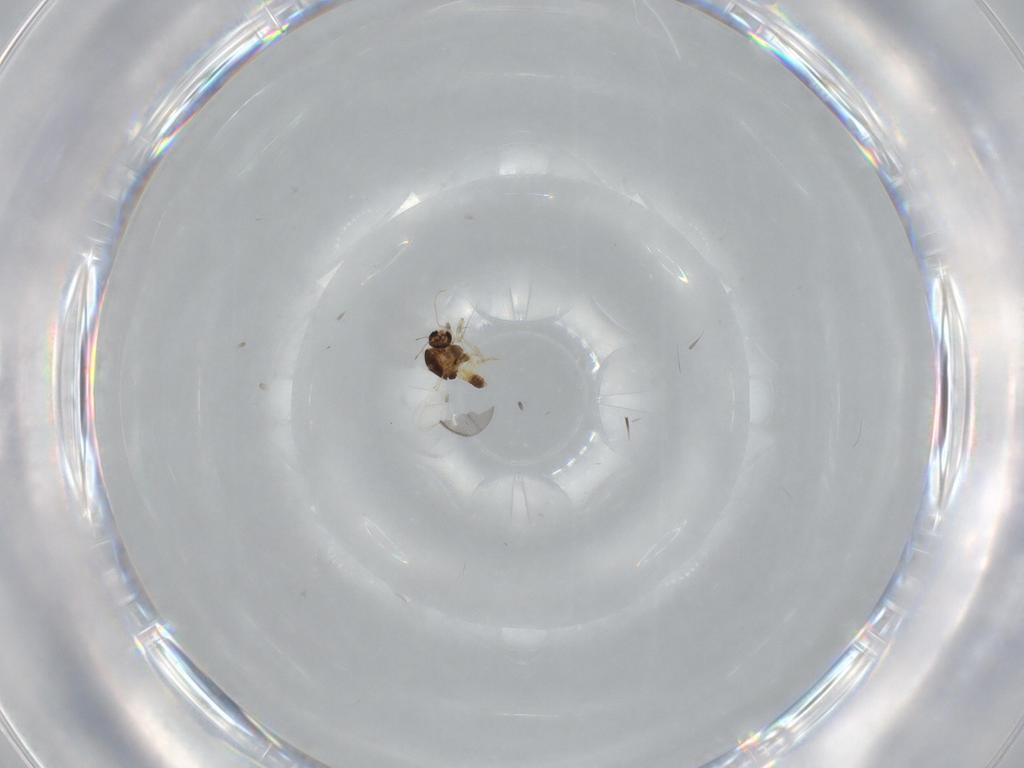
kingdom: Animalia
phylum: Arthropoda
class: Insecta
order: Diptera
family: Chironomidae
